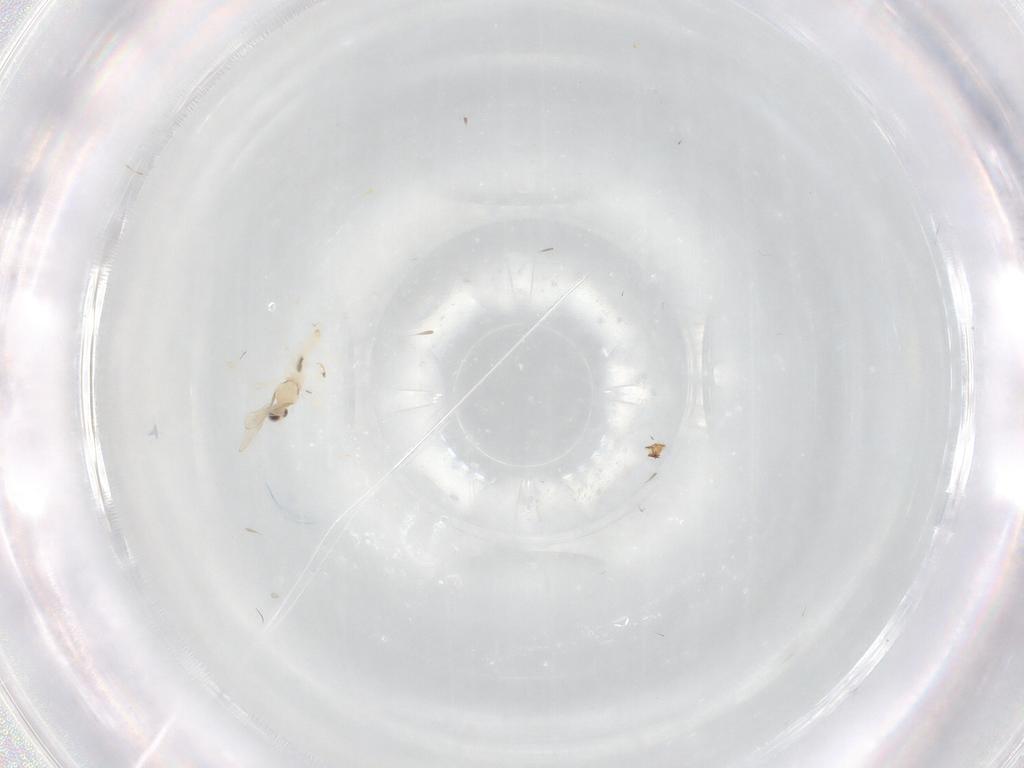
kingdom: Animalia
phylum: Arthropoda
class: Insecta
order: Diptera
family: Phoridae
